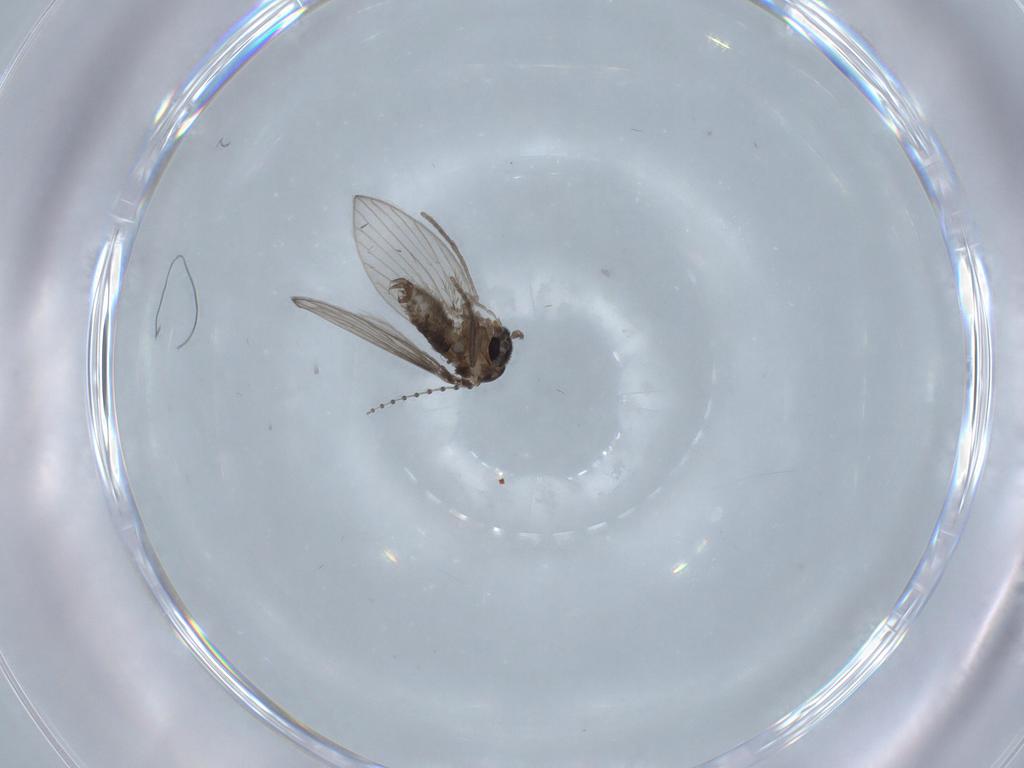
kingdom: Animalia
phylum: Arthropoda
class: Insecta
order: Diptera
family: Psychodidae
